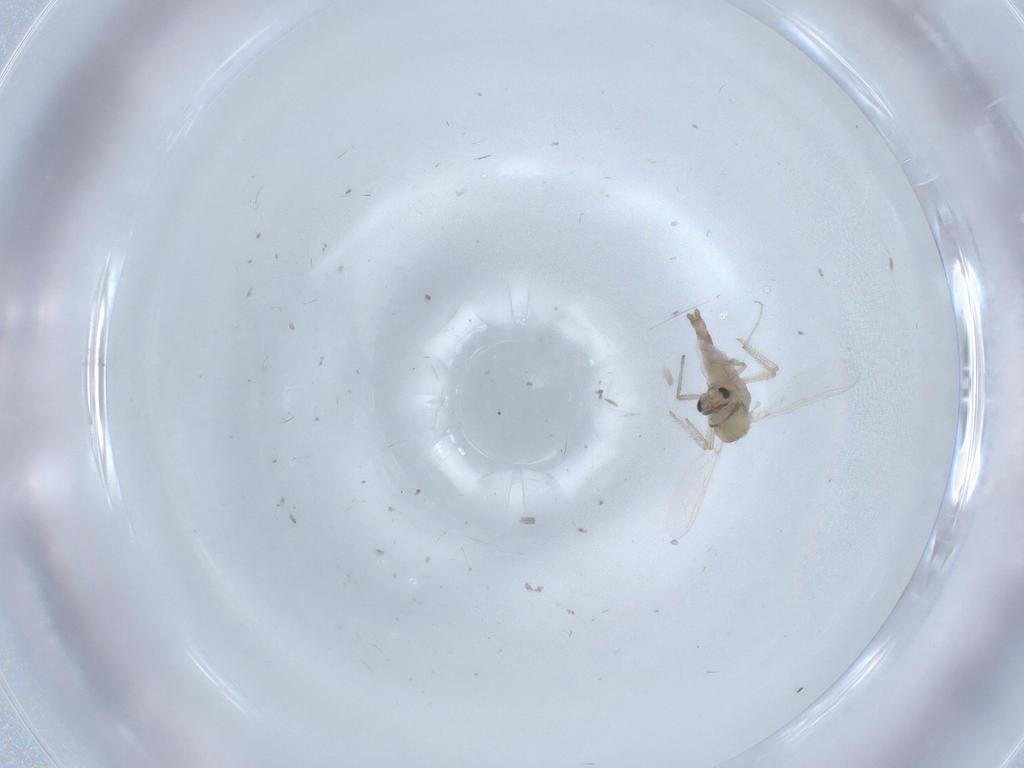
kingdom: Animalia
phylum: Arthropoda
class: Insecta
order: Diptera
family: Chironomidae
